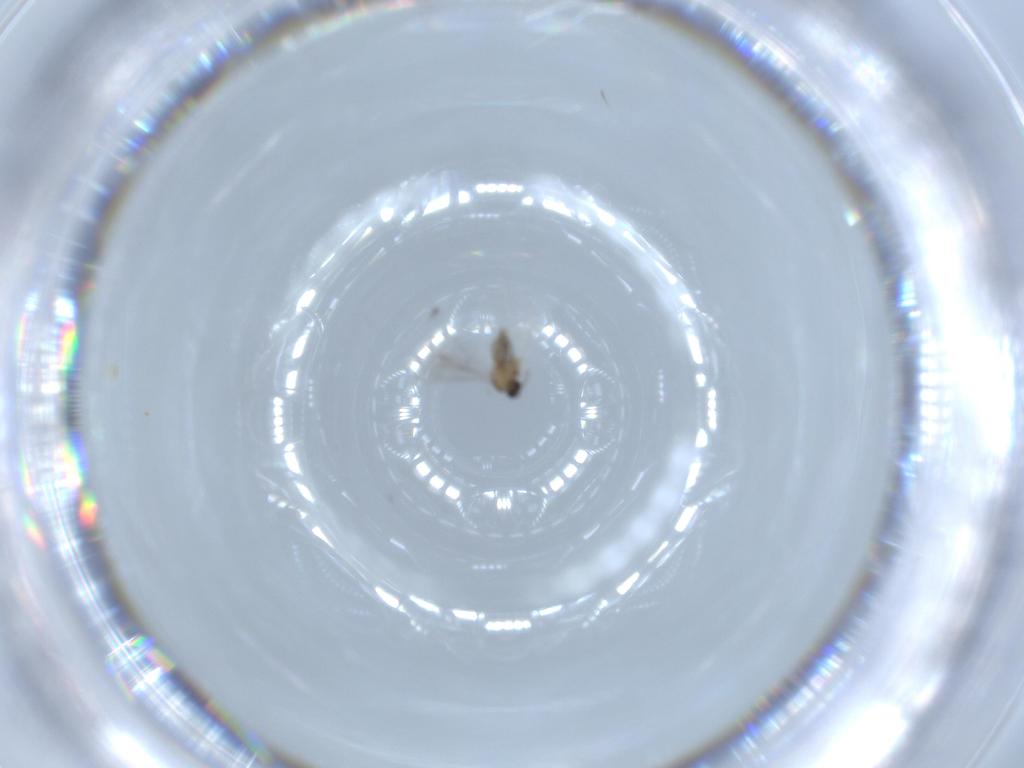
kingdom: Animalia
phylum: Arthropoda
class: Insecta
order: Diptera
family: Cecidomyiidae
